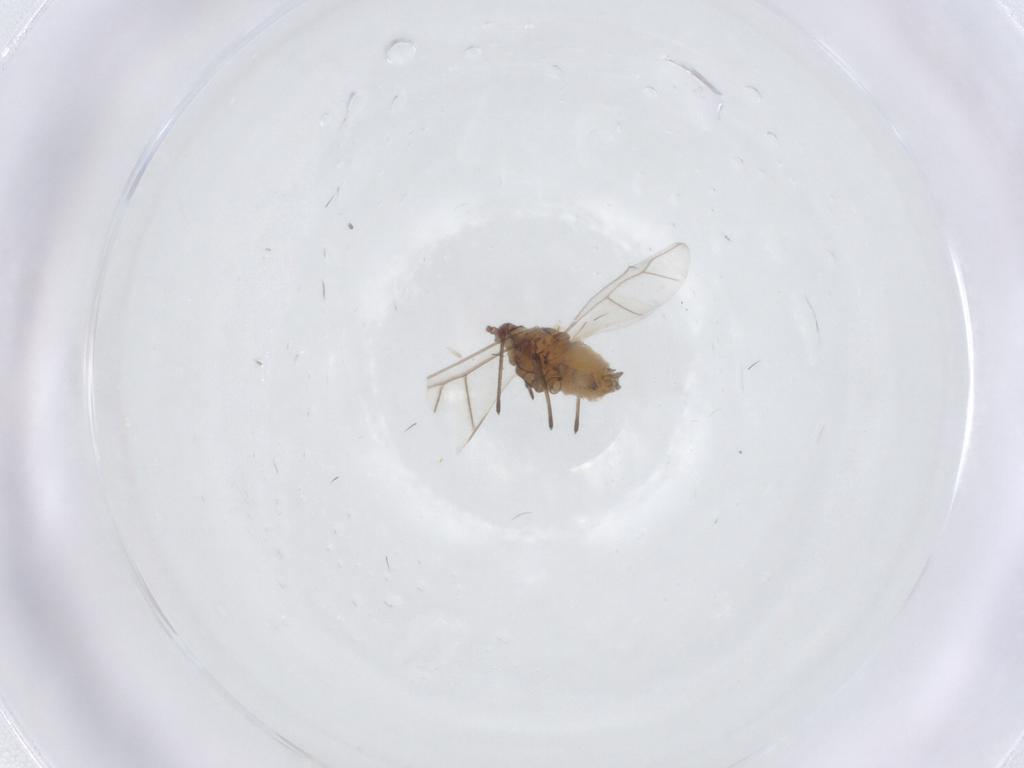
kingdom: Animalia
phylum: Arthropoda
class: Insecta
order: Hemiptera
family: Aphididae
